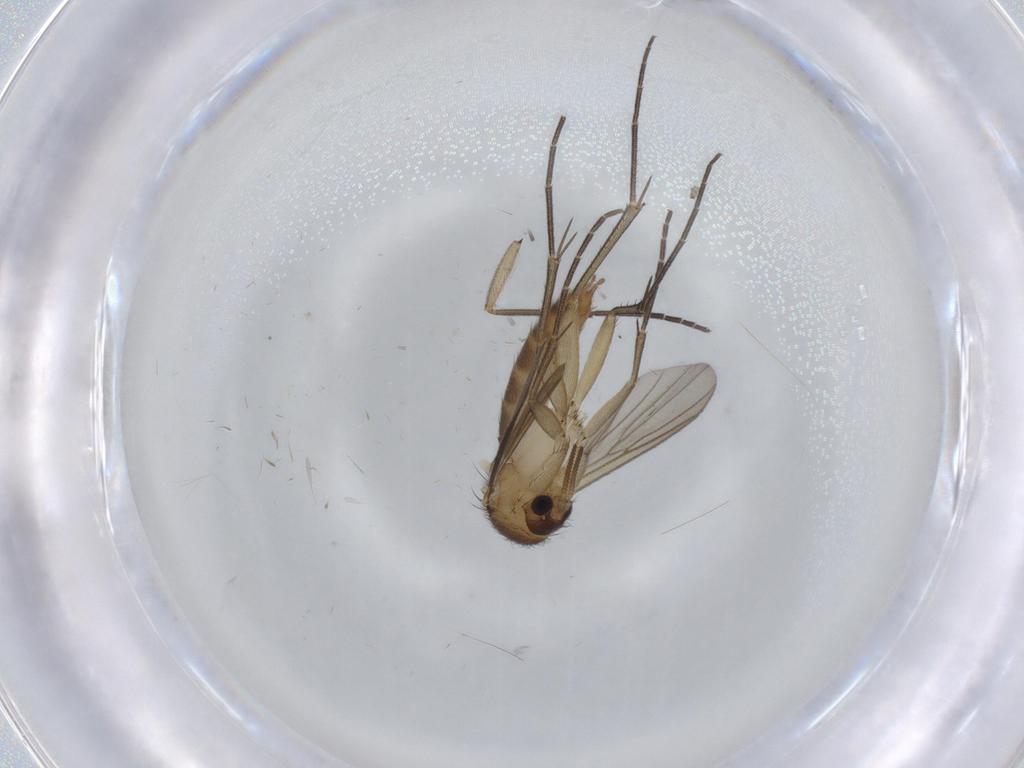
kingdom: Animalia
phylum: Arthropoda
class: Insecta
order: Diptera
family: Mycetophilidae
